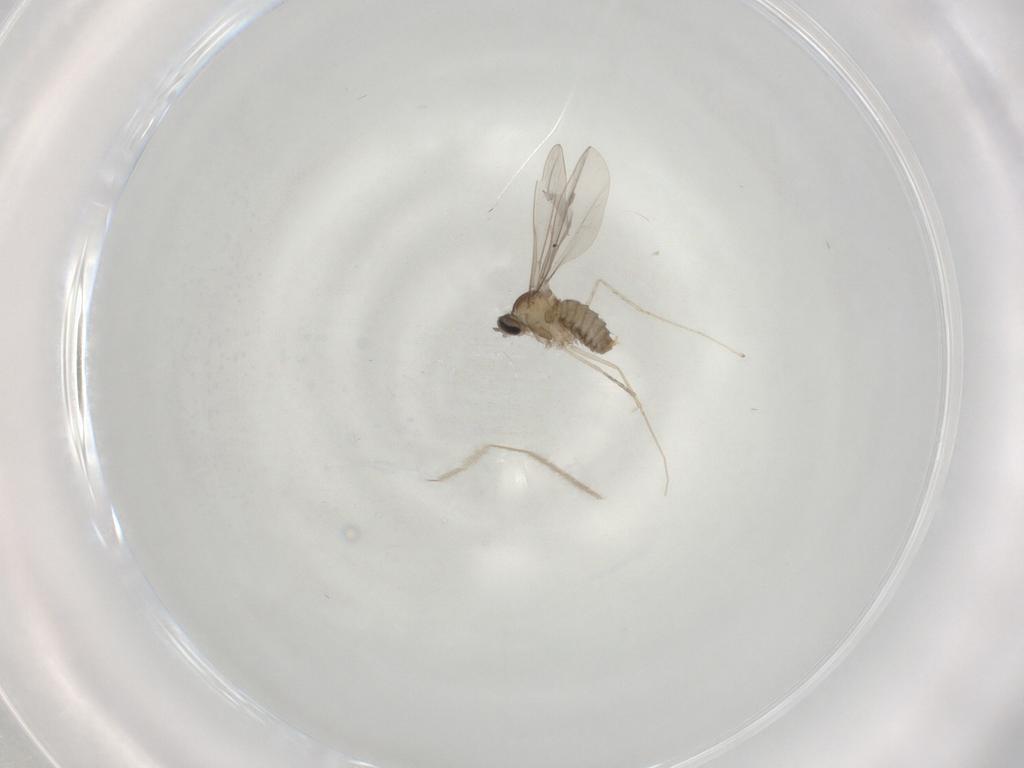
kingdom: Animalia
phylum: Arthropoda
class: Insecta
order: Diptera
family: Cecidomyiidae
